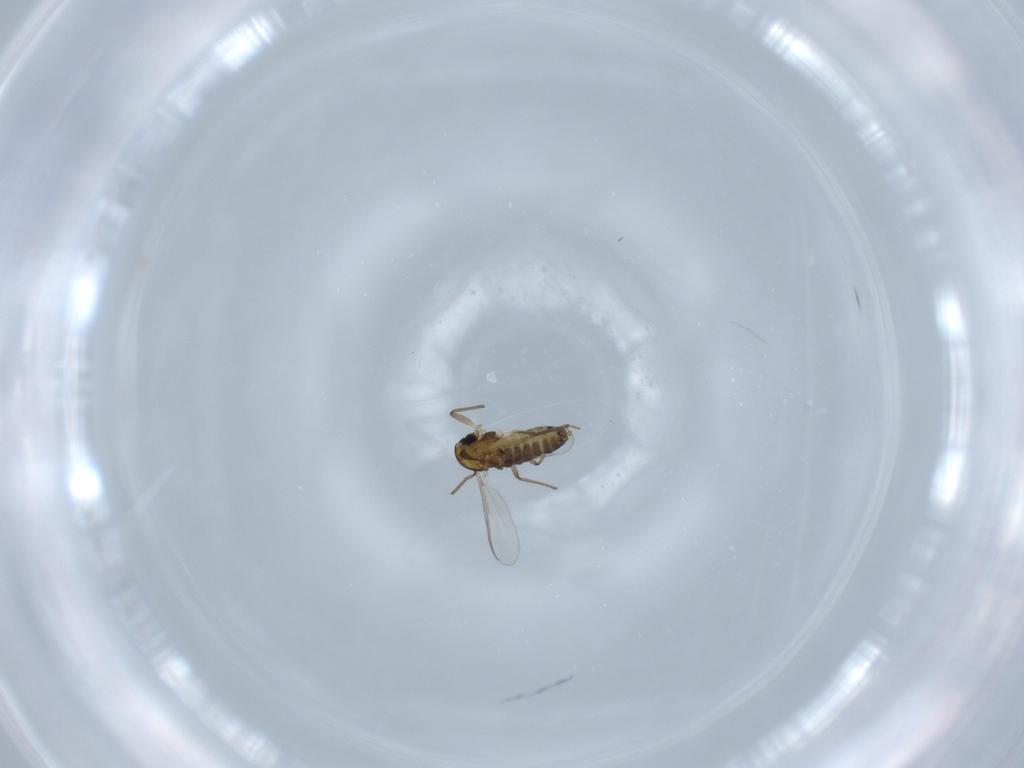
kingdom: Animalia
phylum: Arthropoda
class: Insecta
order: Diptera
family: Chironomidae
